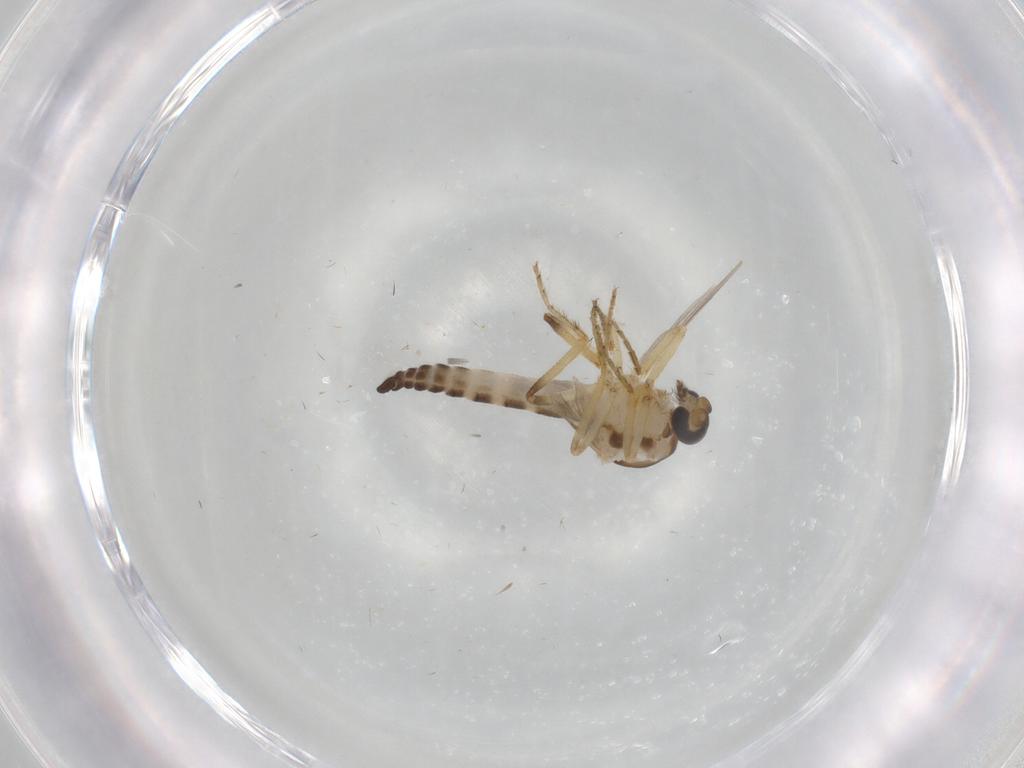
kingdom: Animalia
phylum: Arthropoda
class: Insecta
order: Diptera
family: Ceratopogonidae
